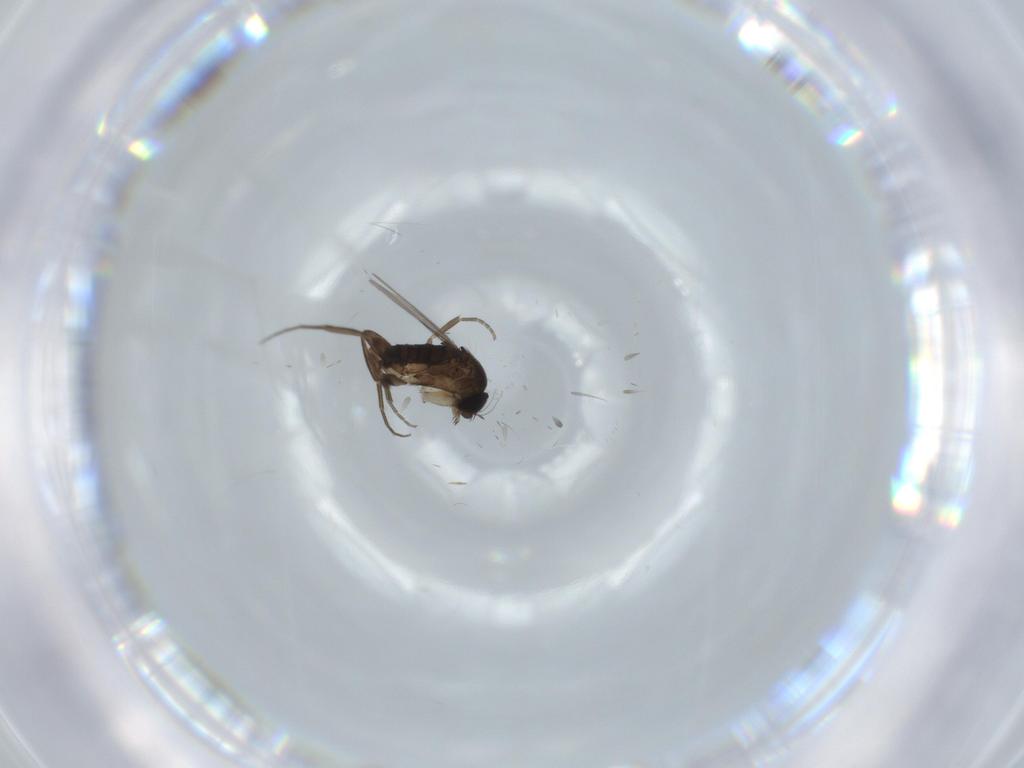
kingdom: Animalia
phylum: Arthropoda
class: Insecta
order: Diptera
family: Phoridae
